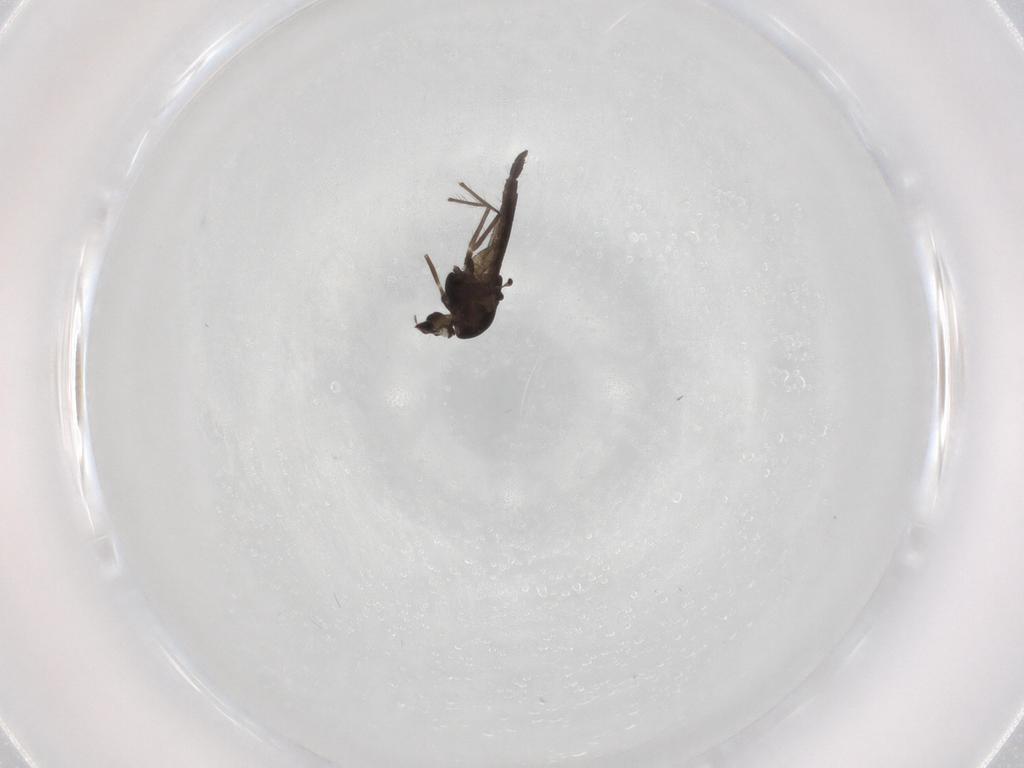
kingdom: Animalia
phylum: Arthropoda
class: Insecta
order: Diptera
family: Chironomidae
